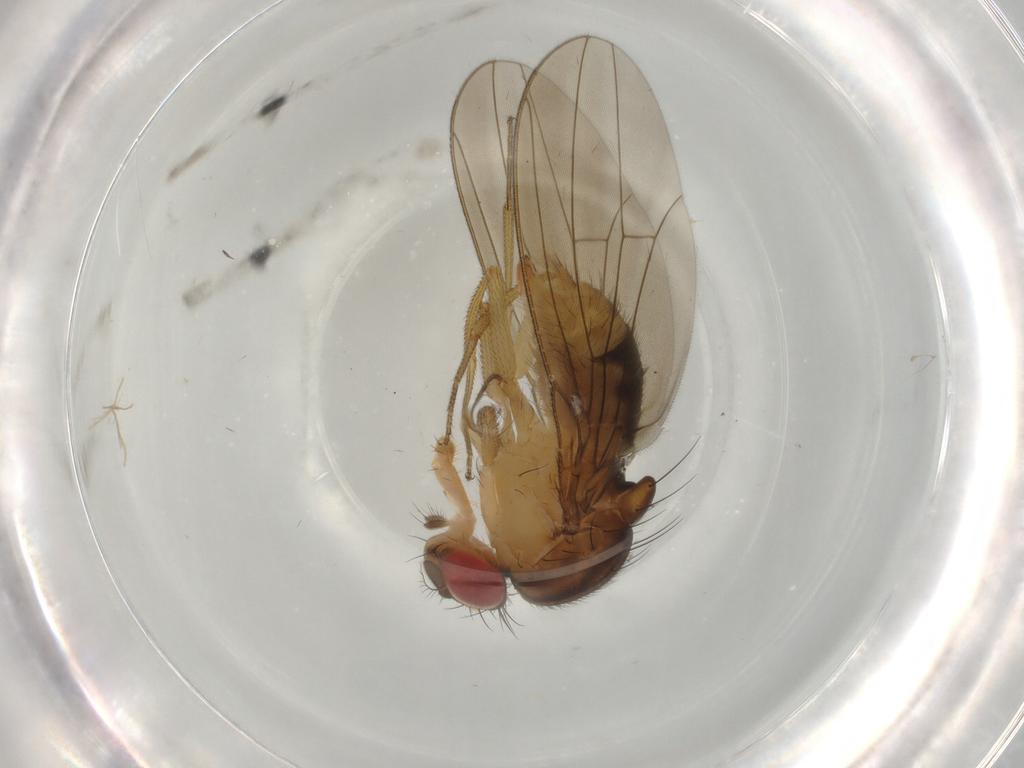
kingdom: Animalia
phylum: Arthropoda
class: Insecta
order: Diptera
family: Drosophilidae
